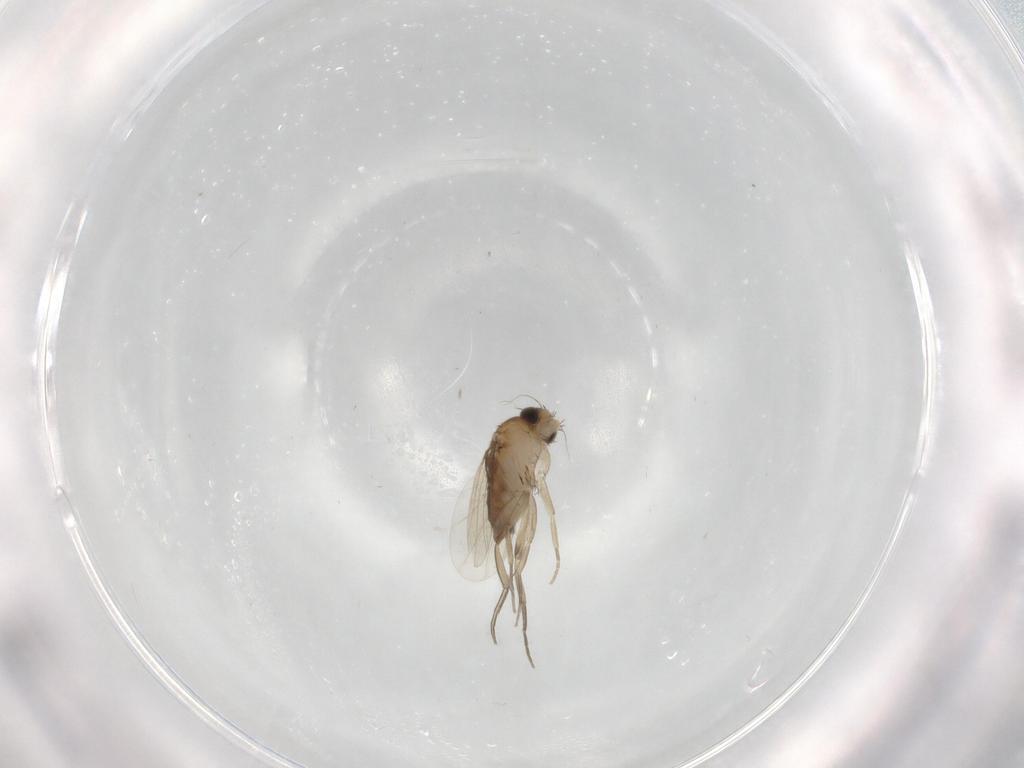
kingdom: Animalia
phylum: Arthropoda
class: Insecta
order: Diptera
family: Phoridae
